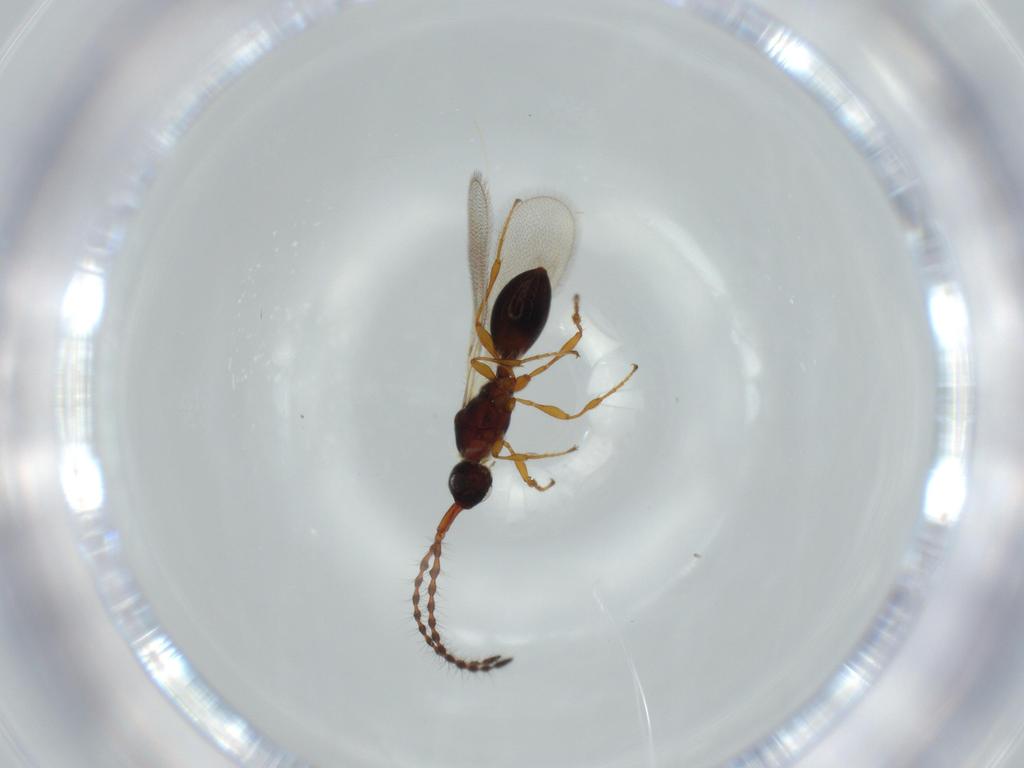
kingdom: Animalia
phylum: Arthropoda
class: Insecta
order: Hymenoptera
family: Diapriidae
